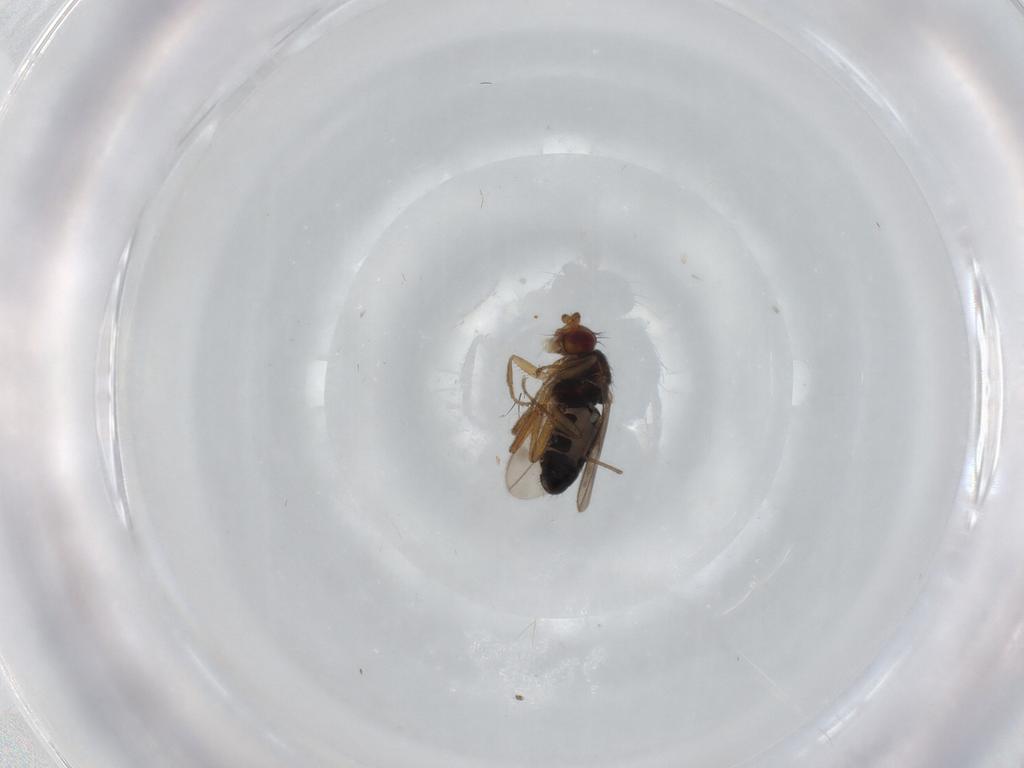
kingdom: Animalia
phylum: Arthropoda
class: Insecta
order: Diptera
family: Sphaeroceridae
